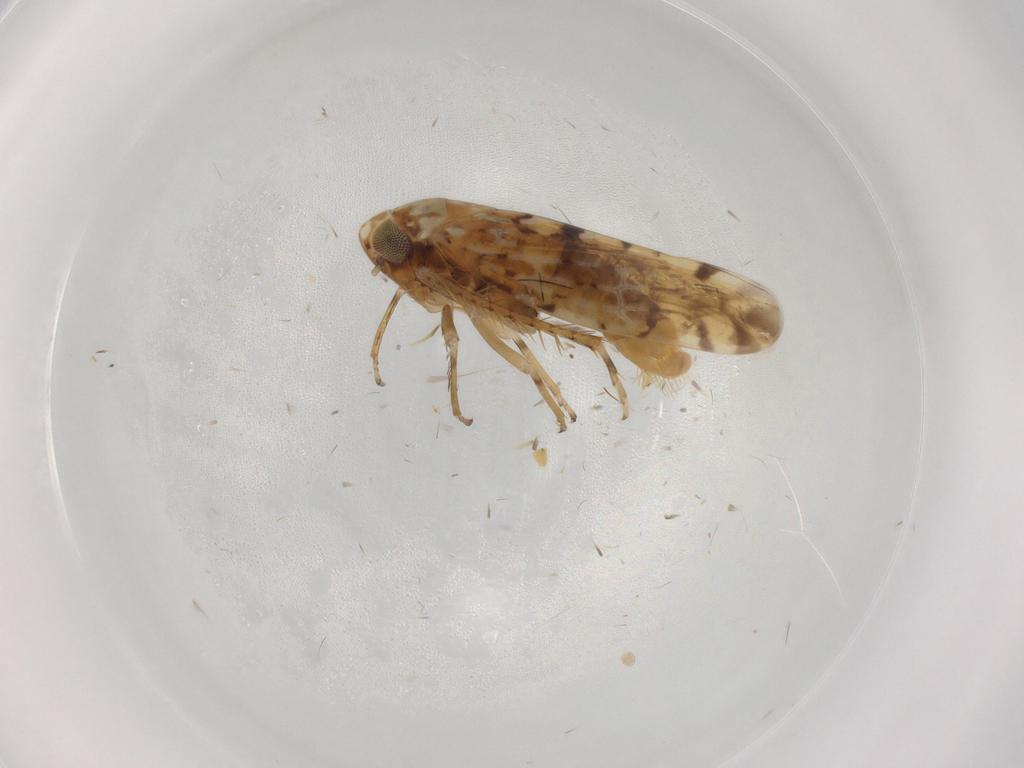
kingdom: Animalia
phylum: Arthropoda
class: Insecta
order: Hemiptera
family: Cicadellidae
